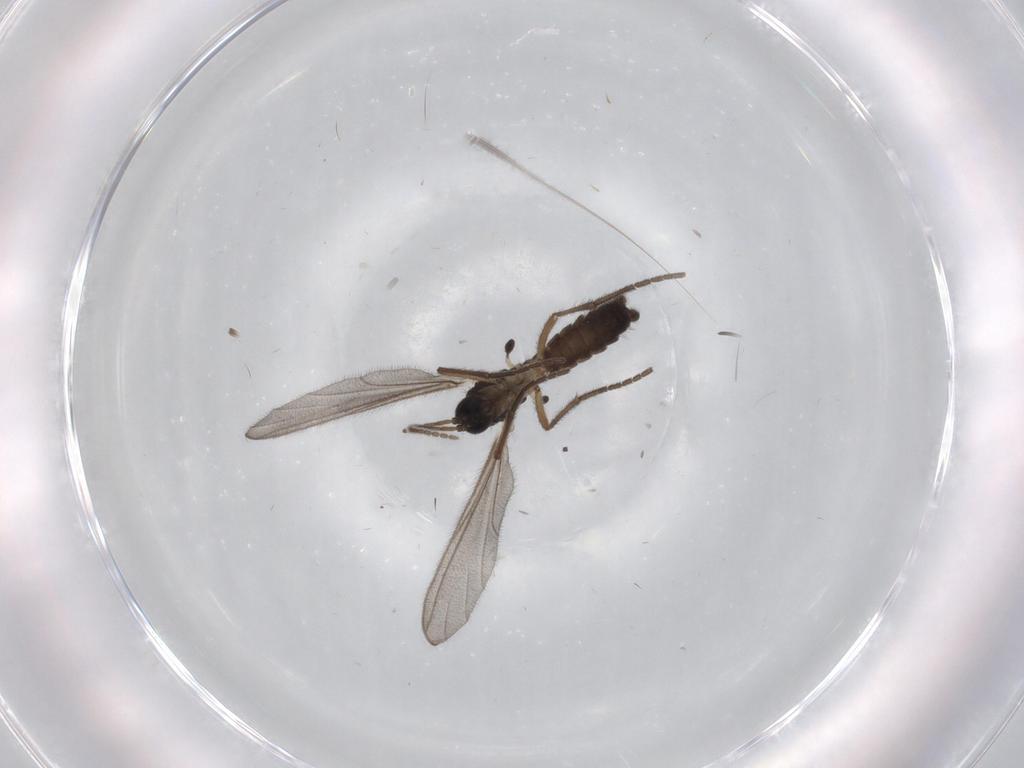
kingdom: Animalia
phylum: Arthropoda
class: Insecta
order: Diptera
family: Mycetophilidae
